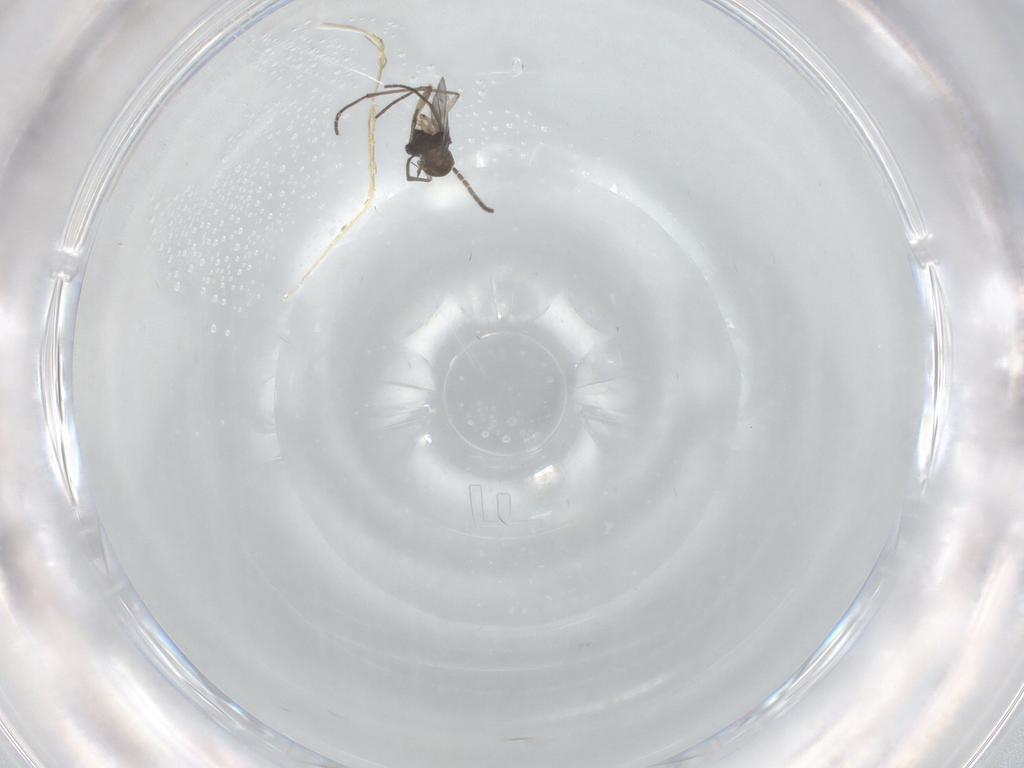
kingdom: Animalia
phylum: Arthropoda
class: Insecta
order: Diptera
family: Sciaridae
